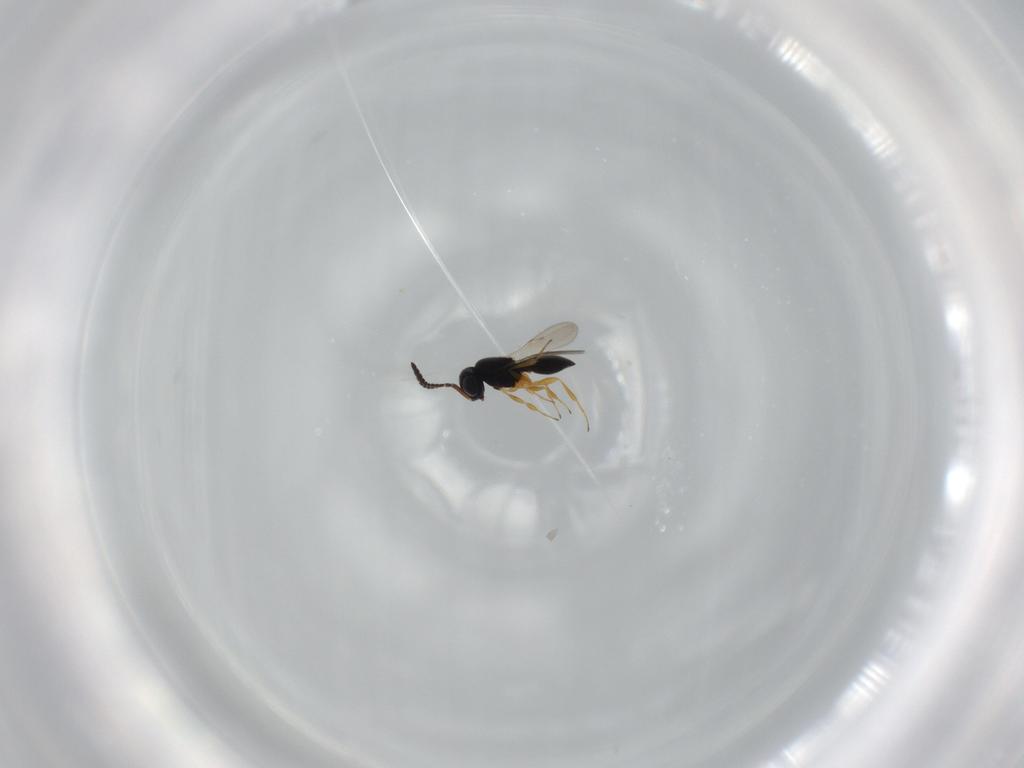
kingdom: Animalia
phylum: Arthropoda
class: Insecta
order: Hymenoptera
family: Scelionidae
